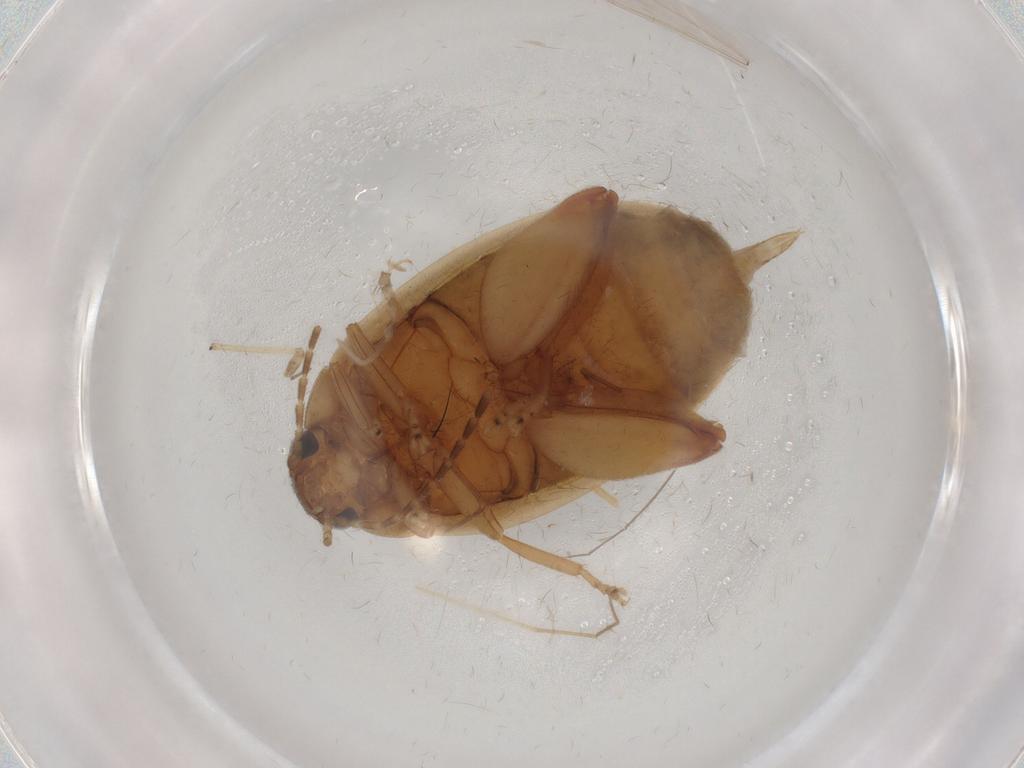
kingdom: Animalia
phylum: Arthropoda
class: Insecta
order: Coleoptera
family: Scirtidae
